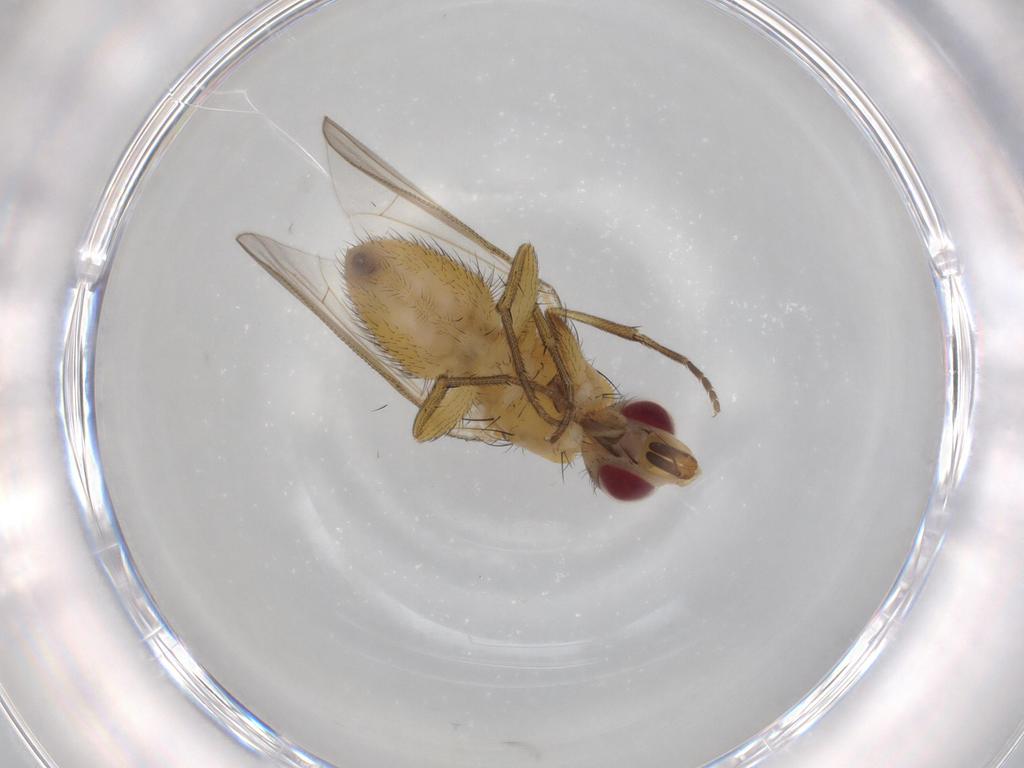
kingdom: Animalia
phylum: Arthropoda
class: Insecta
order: Diptera
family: Muscidae
